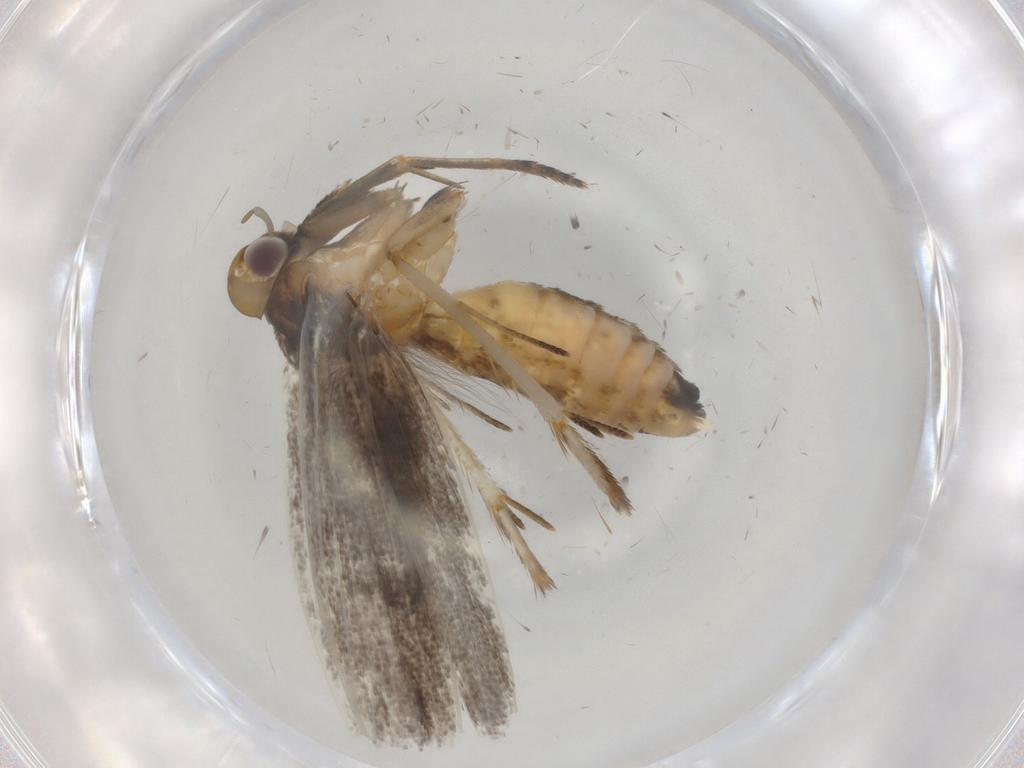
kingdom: Animalia
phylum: Arthropoda
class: Insecta
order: Lepidoptera
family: Epermeniidae
